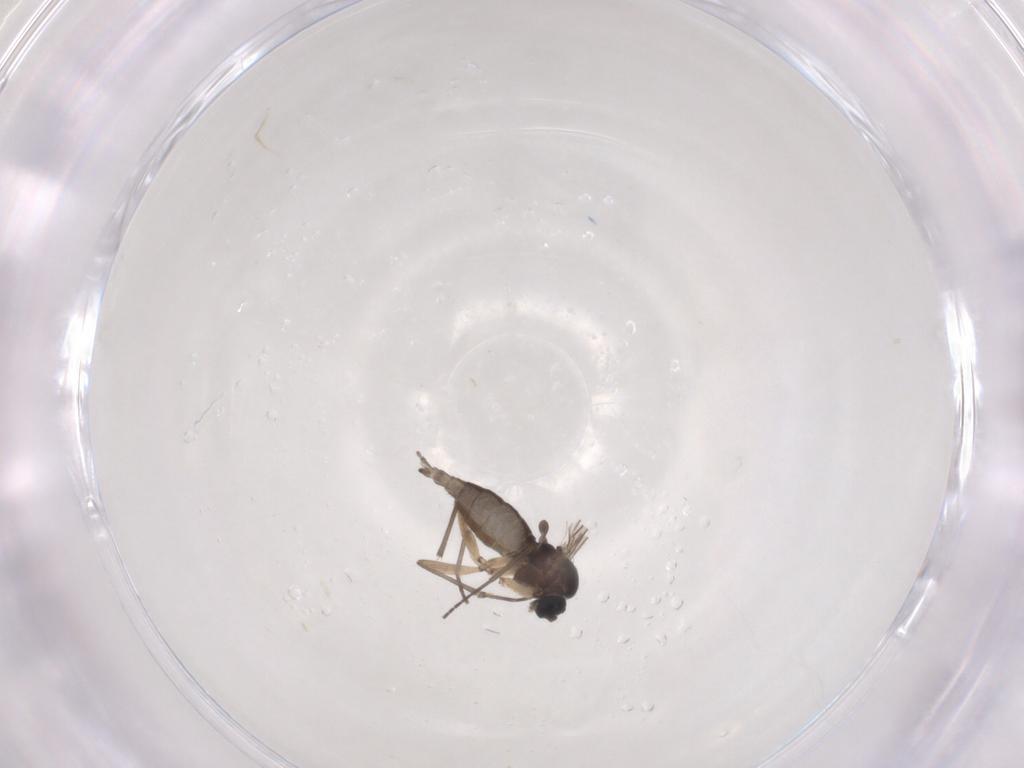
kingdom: Animalia
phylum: Arthropoda
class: Insecta
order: Diptera
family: Sciaridae
